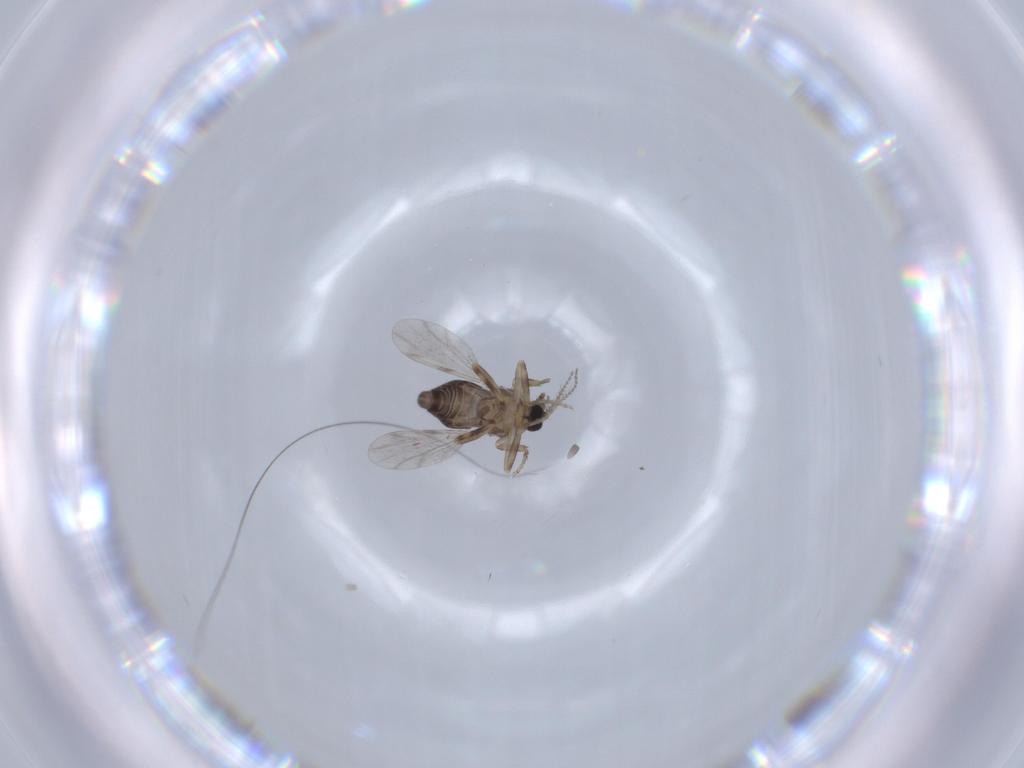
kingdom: Animalia
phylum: Arthropoda
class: Insecta
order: Diptera
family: Ceratopogonidae
